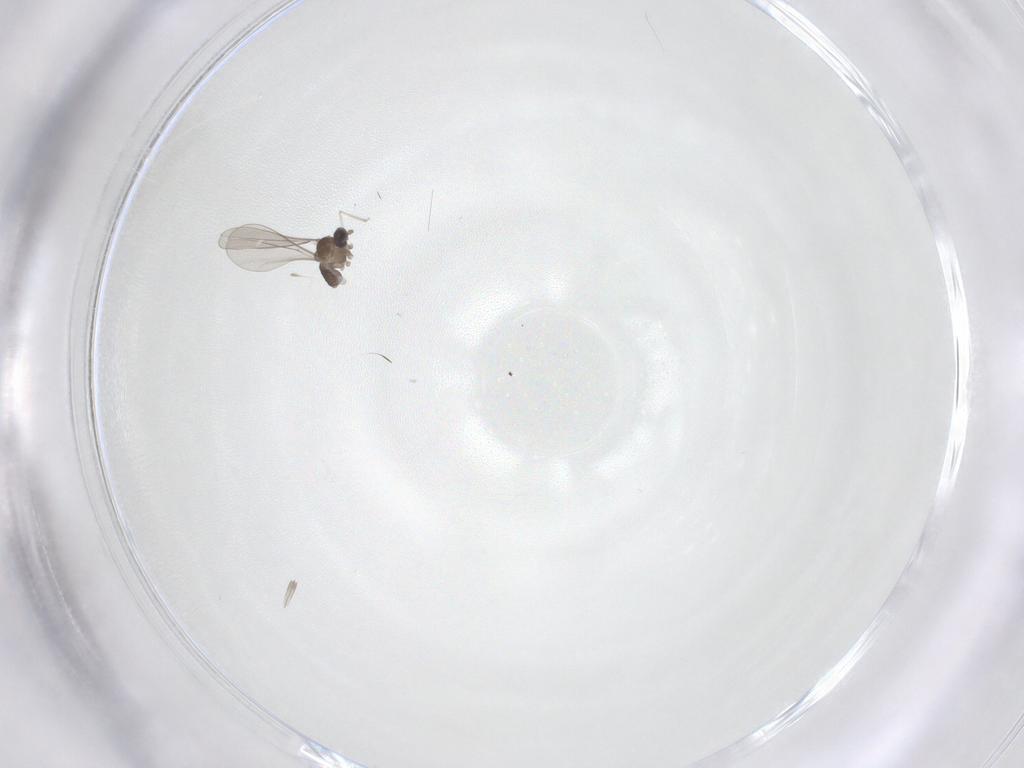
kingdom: Animalia
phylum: Arthropoda
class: Insecta
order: Diptera
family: Cecidomyiidae
